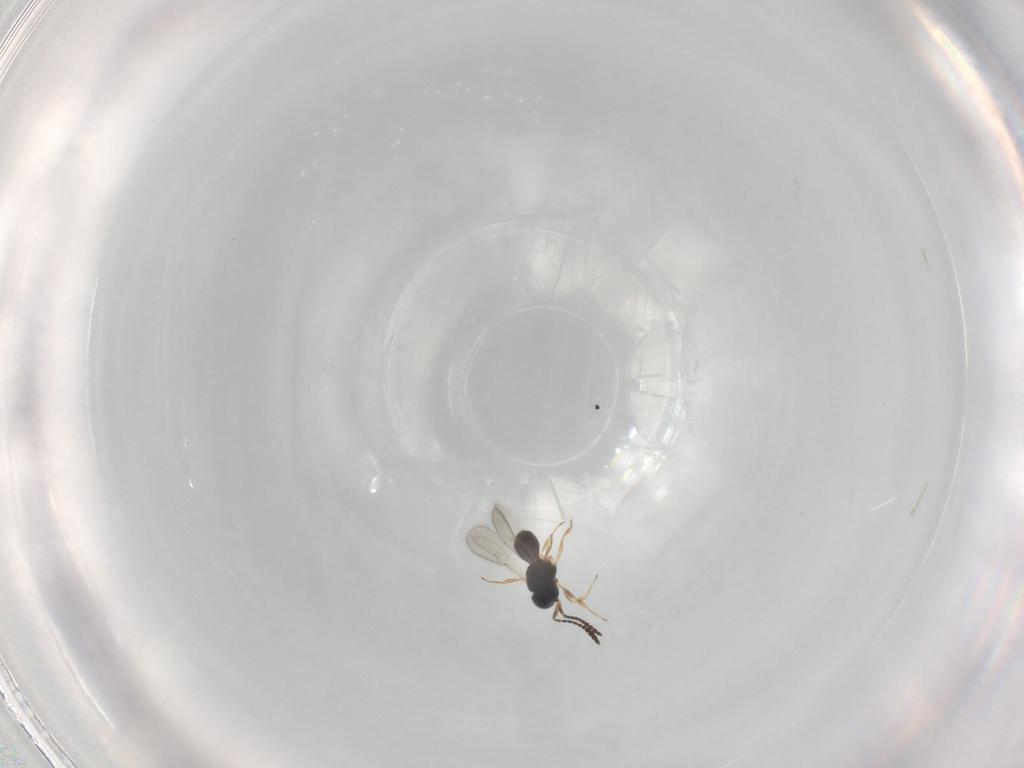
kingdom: Animalia
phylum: Arthropoda
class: Insecta
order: Hymenoptera
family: Scelionidae
